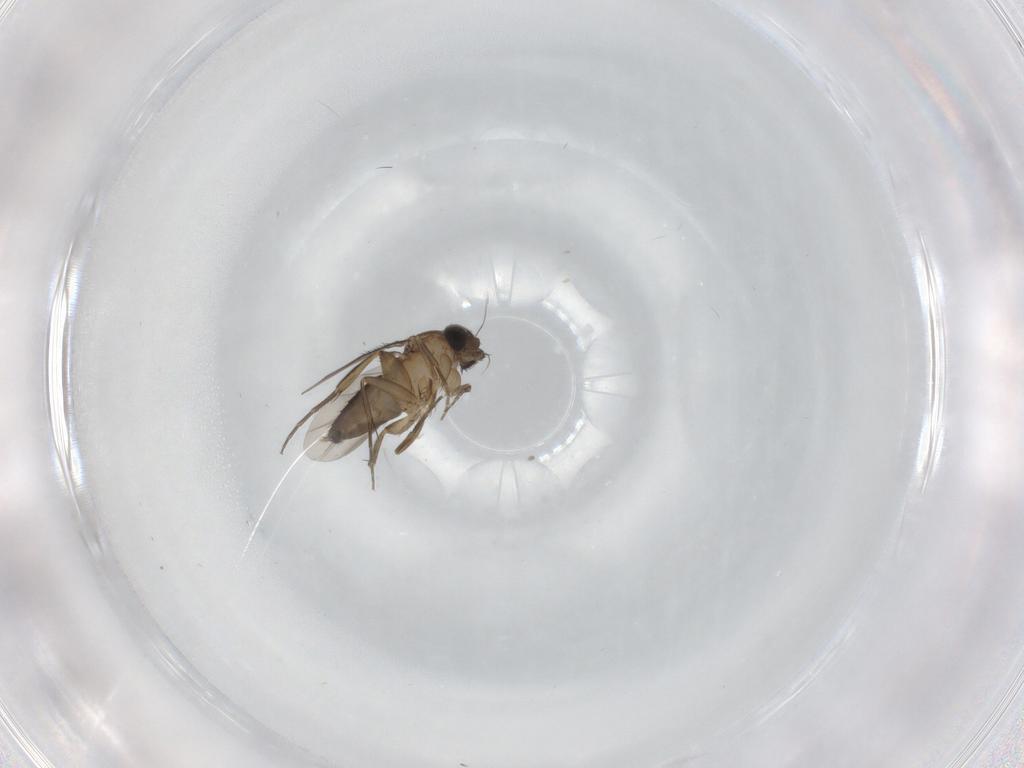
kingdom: Animalia
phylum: Arthropoda
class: Insecta
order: Diptera
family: Phoridae
